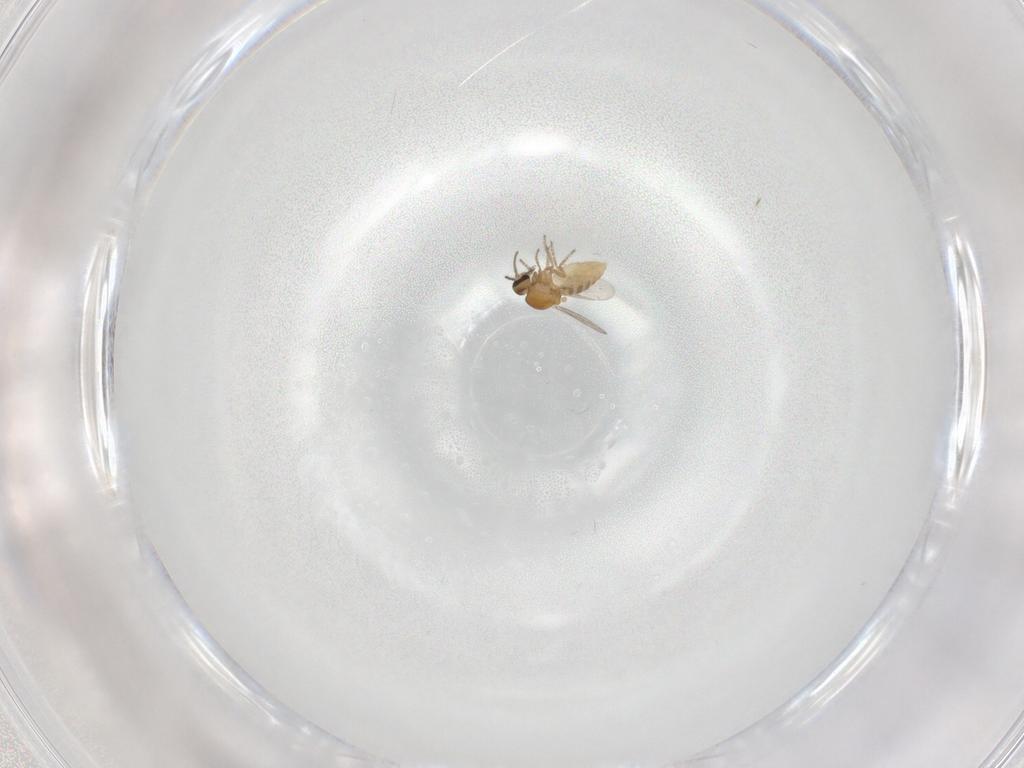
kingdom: Animalia
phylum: Arthropoda
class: Insecta
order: Diptera
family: Ceratopogonidae
